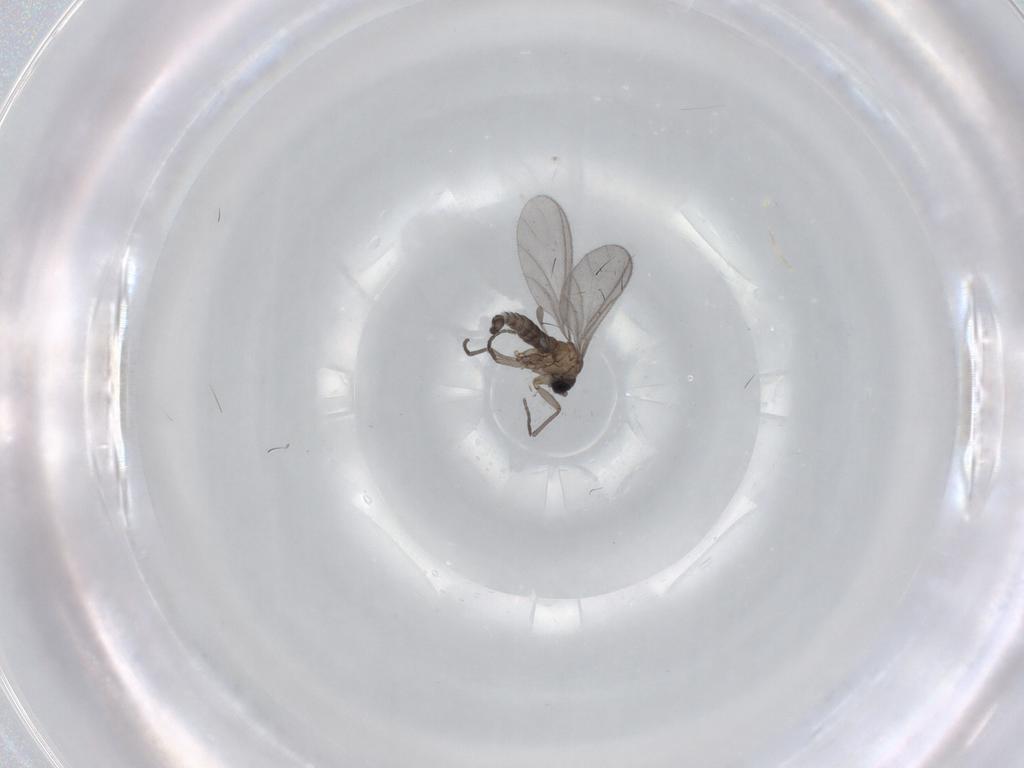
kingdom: Animalia
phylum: Arthropoda
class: Insecta
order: Diptera
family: Sciaridae
